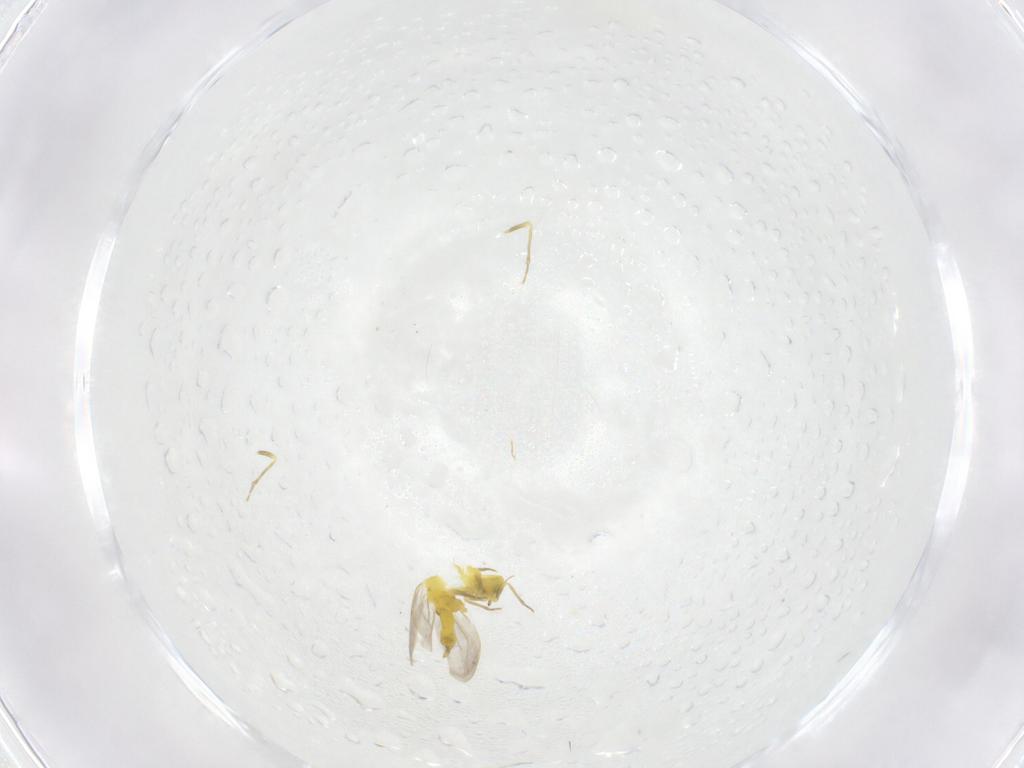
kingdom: Animalia
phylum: Arthropoda
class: Insecta
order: Hemiptera
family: Aleyrodidae
